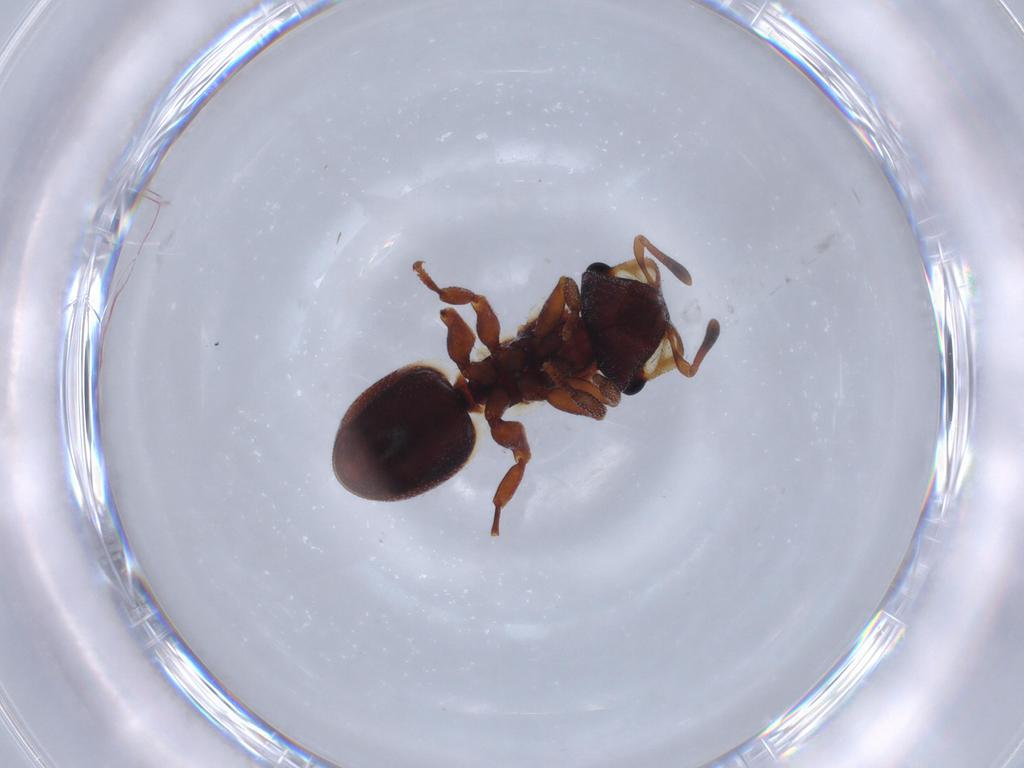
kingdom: Animalia
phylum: Arthropoda
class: Insecta
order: Hymenoptera
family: Formicidae
